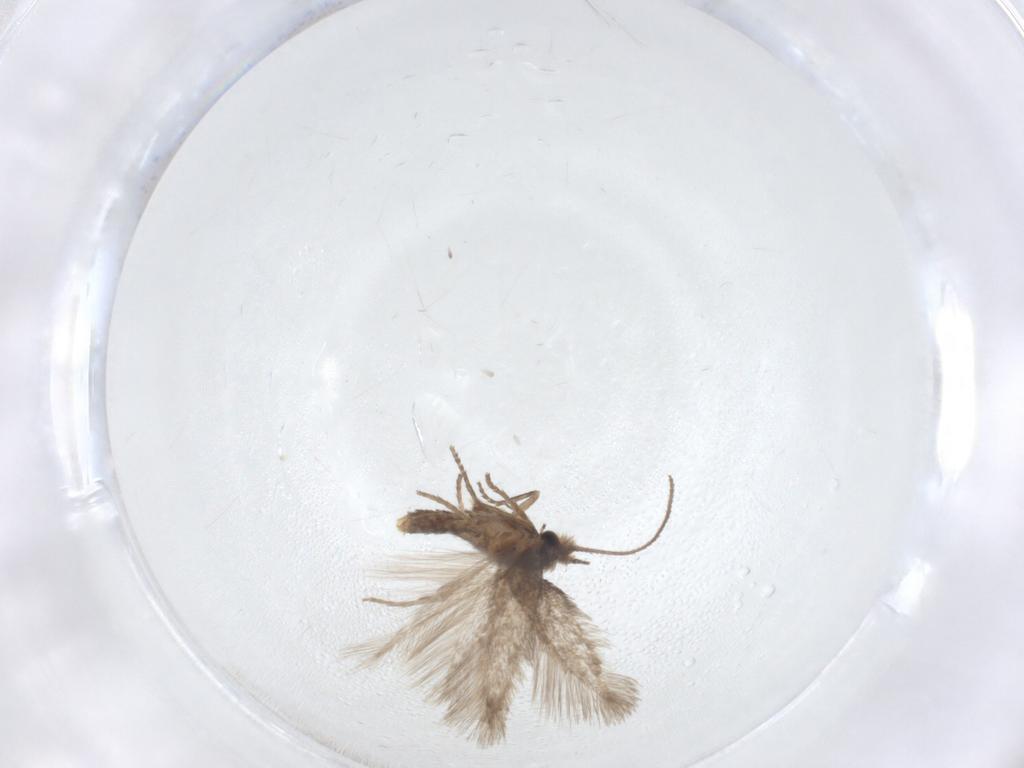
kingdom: Animalia
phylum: Arthropoda
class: Insecta
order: Lepidoptera
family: Nepticulidae
